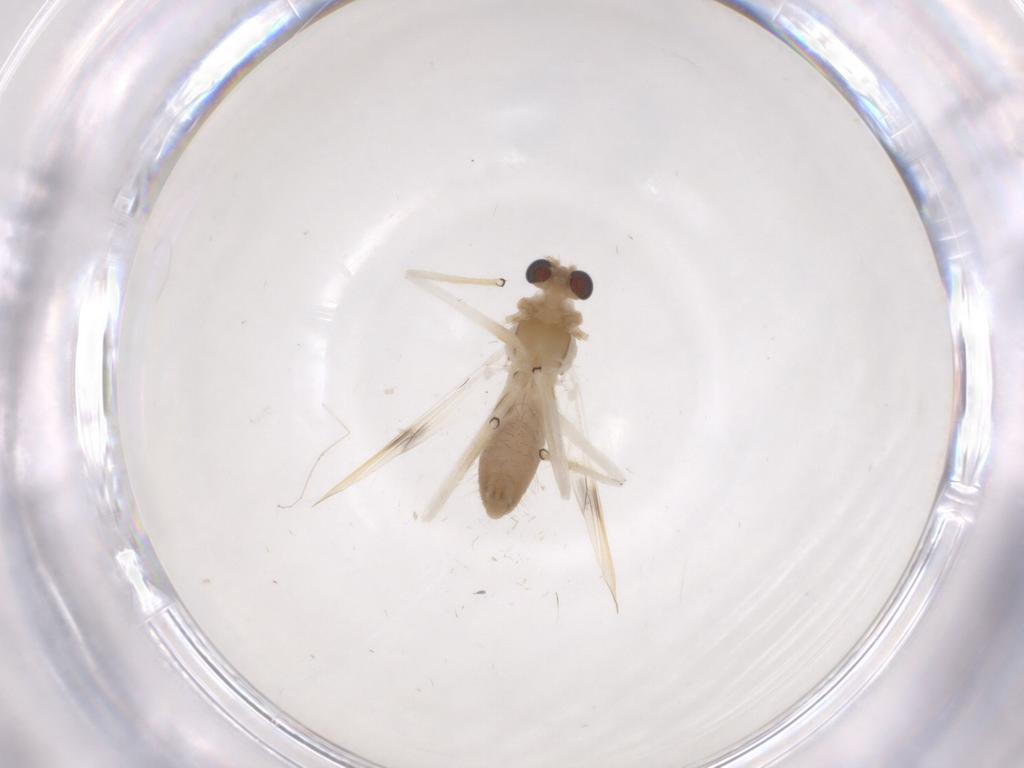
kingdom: Animalia
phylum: Arthropoda
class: Insecta
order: Diptera
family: Chironomidae
